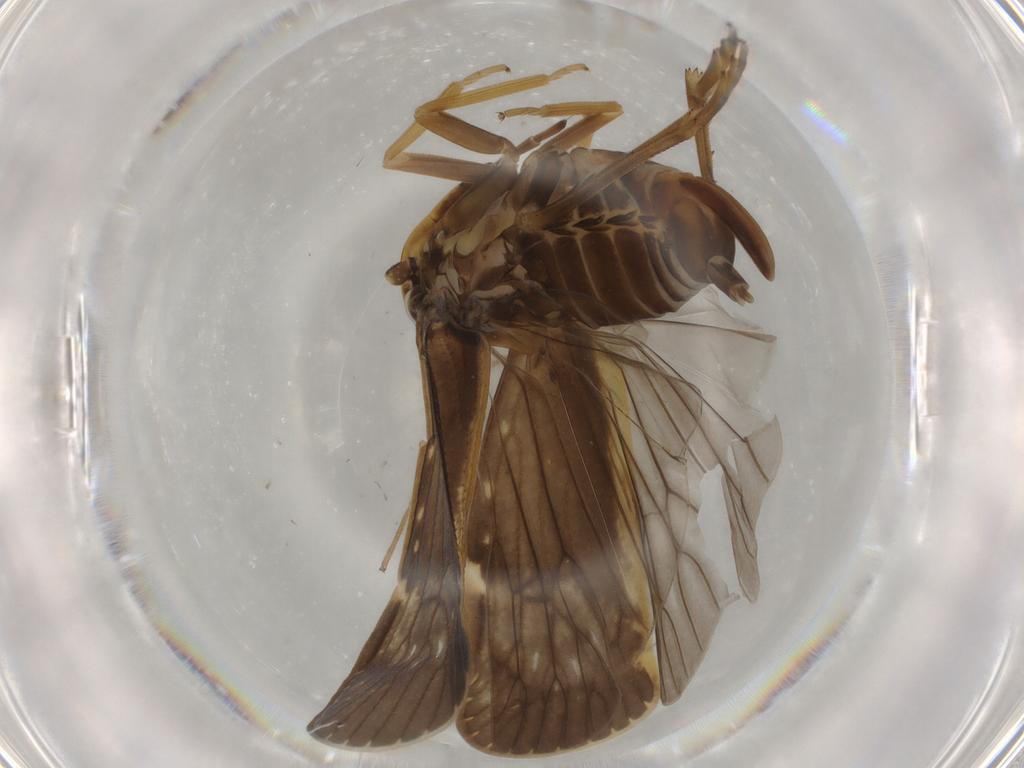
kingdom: Animalia
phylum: Arthropoda
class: Insecta
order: Hemiptera
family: Cixiidae
